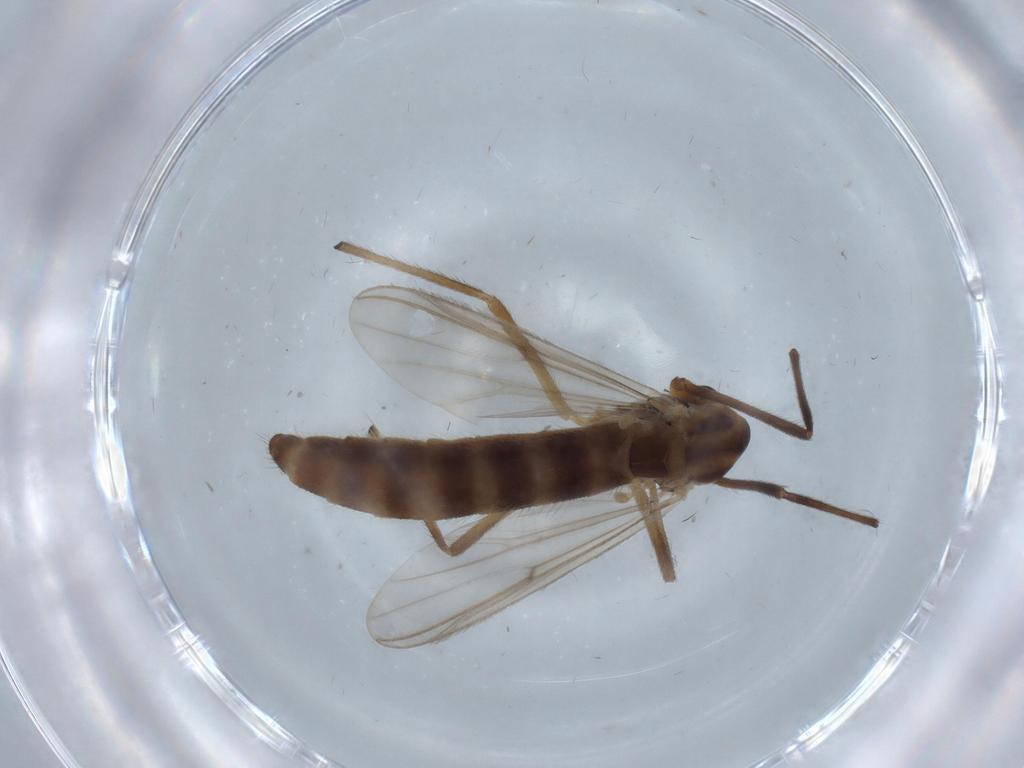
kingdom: Animalia
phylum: Arthropoda
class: Insecta
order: Diptera
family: Chironomidae
